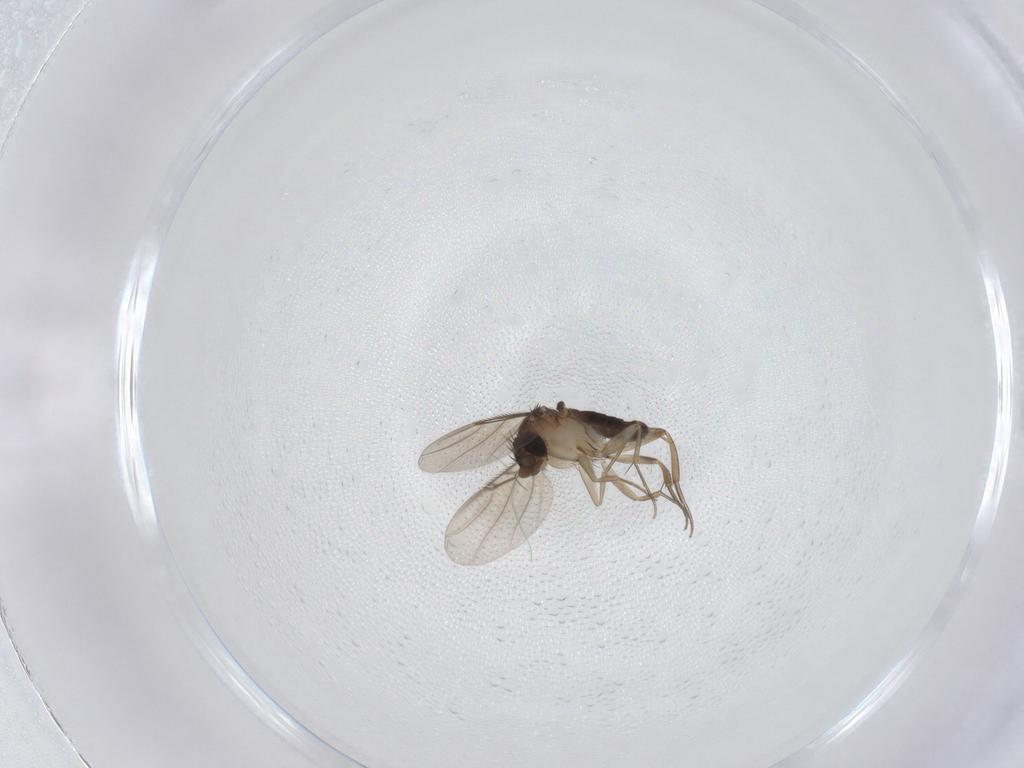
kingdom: Animalia
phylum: Arthropoda
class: Insecta
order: Diptera
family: Phoridae
